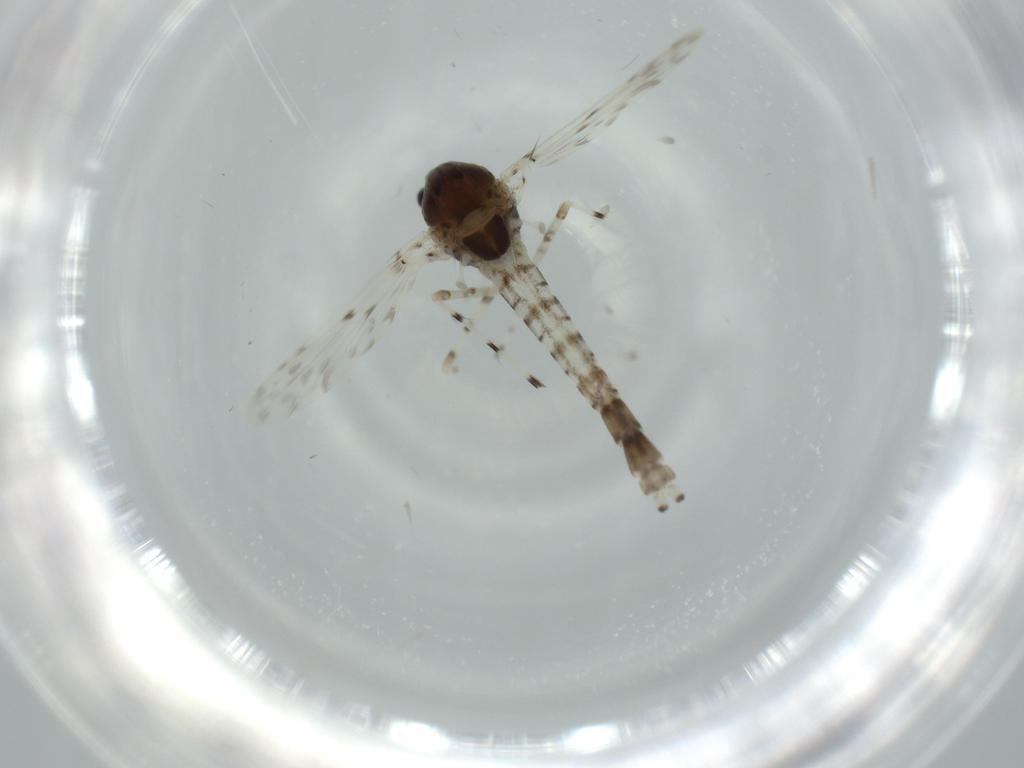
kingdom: Animalia
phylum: Arthropoda
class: Insecta
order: Diptera
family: Chironomidae
